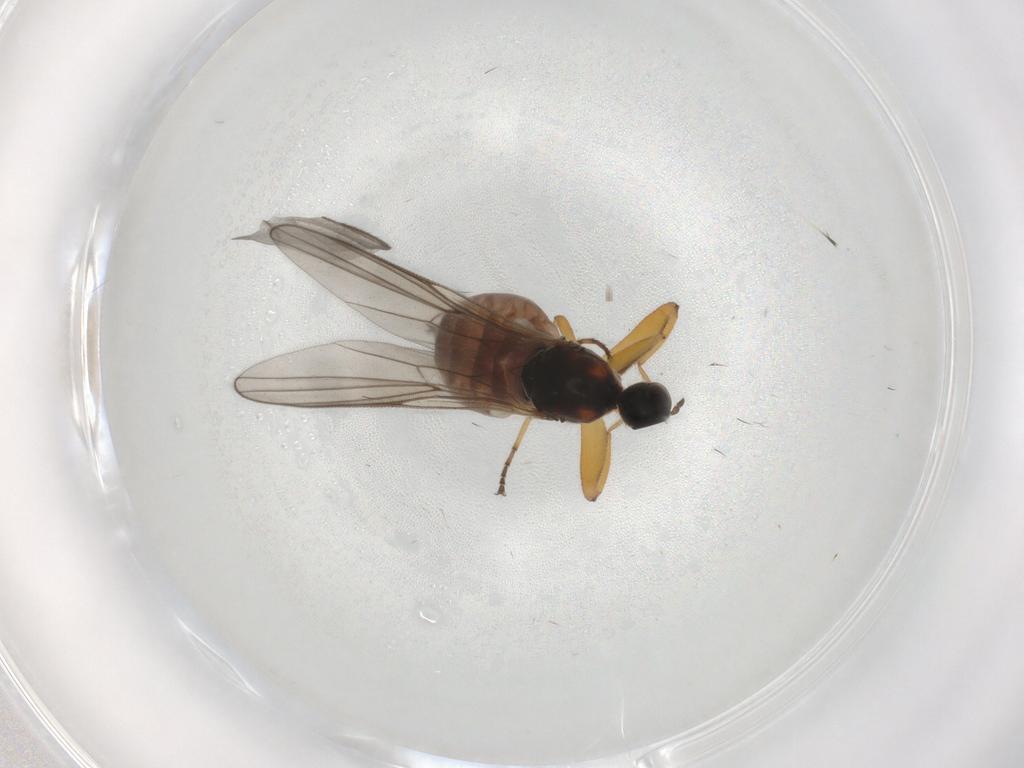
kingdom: Animalia
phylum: Arthropoda
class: Insecta
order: Diptera
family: Hybotidae
